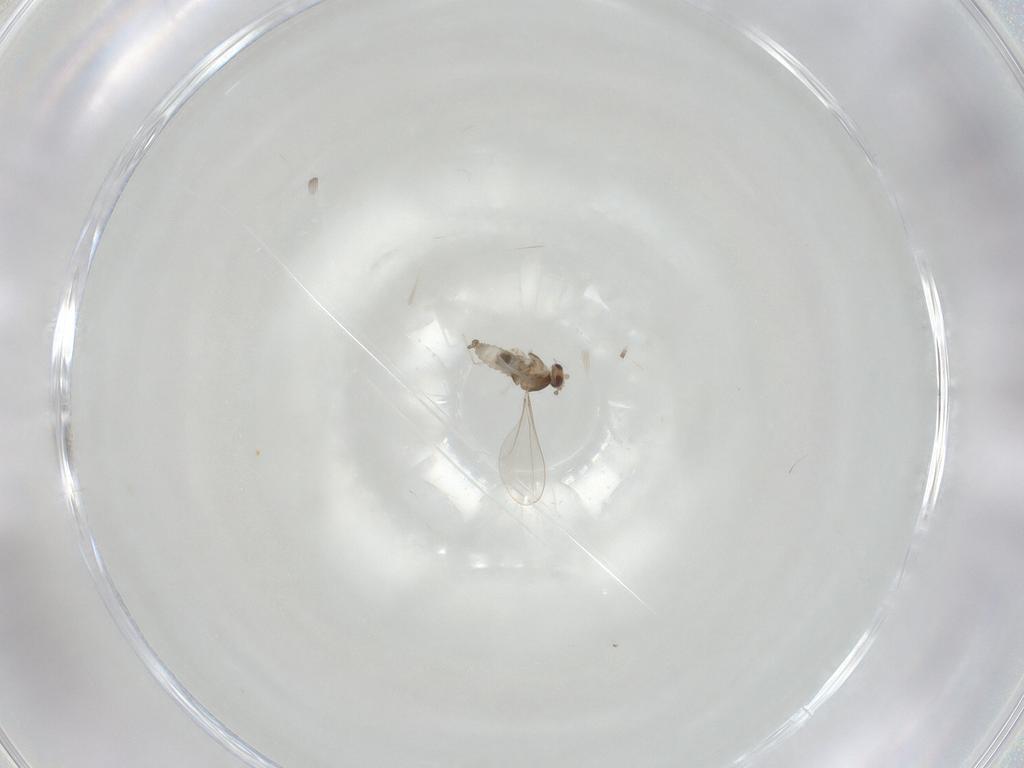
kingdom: Animalia
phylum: Arthropoda
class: Insecta
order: Diptera
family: Cecidomyiidae
